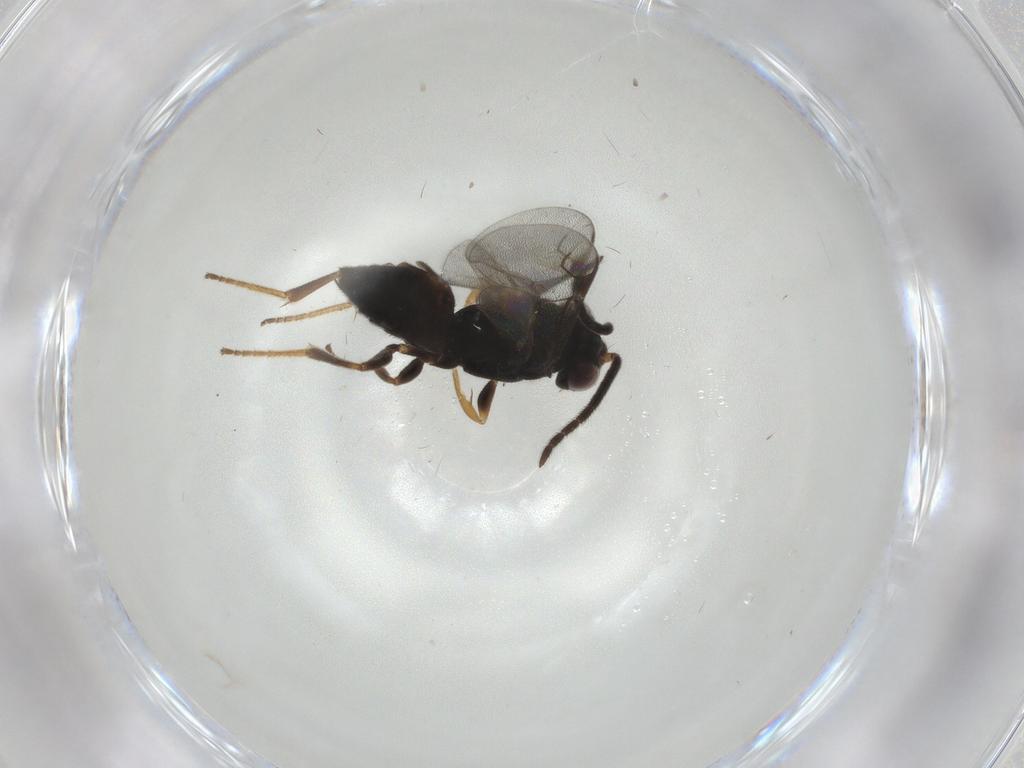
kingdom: Animalia
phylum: Arthropoda
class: Insecta
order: Hymenoptera
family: Dryinidae
